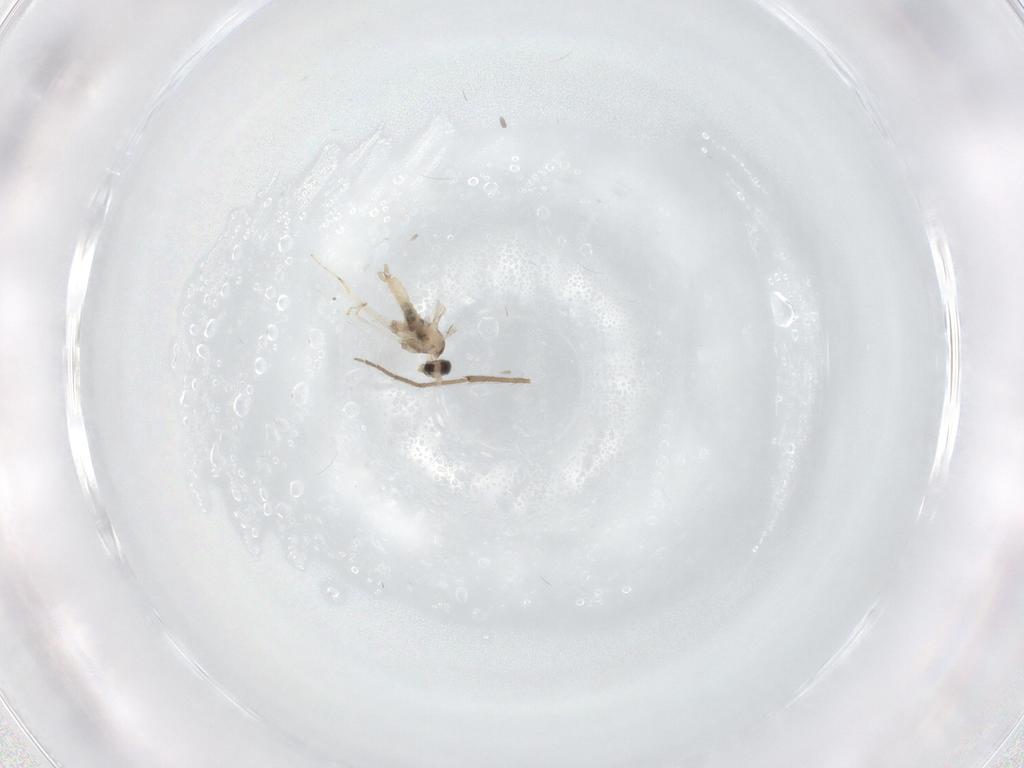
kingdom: Animalia
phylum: Arthropoda
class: Insecta
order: Diptera
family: Cecidomyiidae
